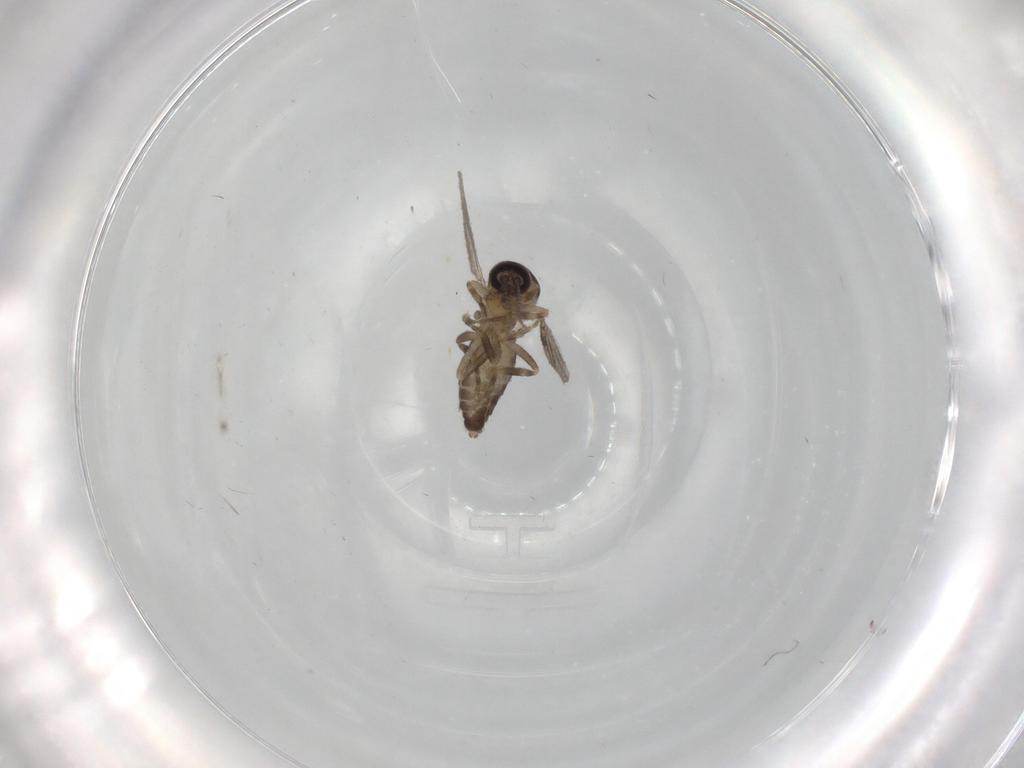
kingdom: Animalia
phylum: Arthropoda
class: Insecta
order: Diptera
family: Ceratopogonidae
